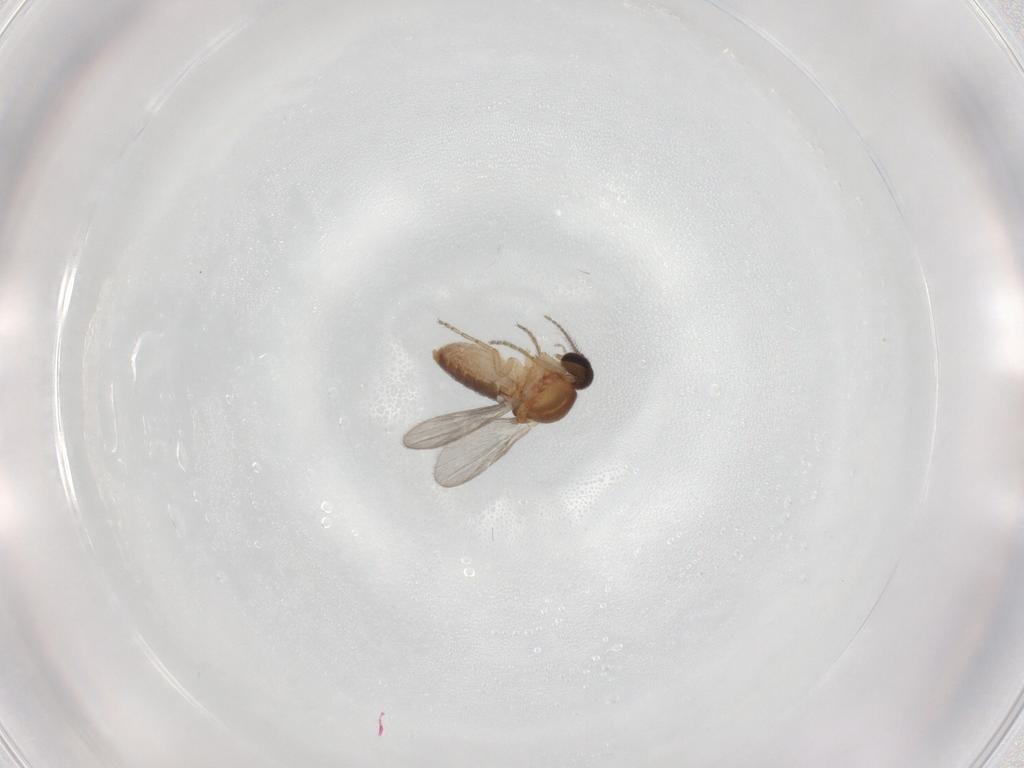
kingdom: Animalia
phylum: Arthropoda
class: Insecta
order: Diptera
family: Ceratopogonidae
